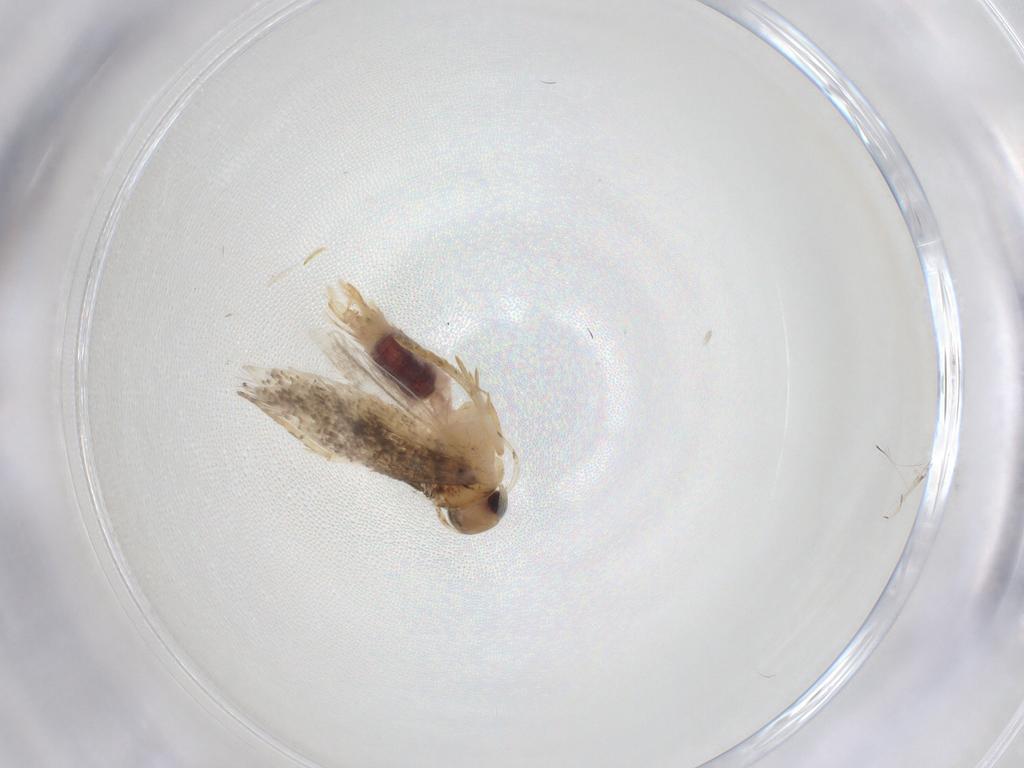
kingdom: Animalia
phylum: Arthropoda
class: Insecta
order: Lepidoptera
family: Gelechiidae
